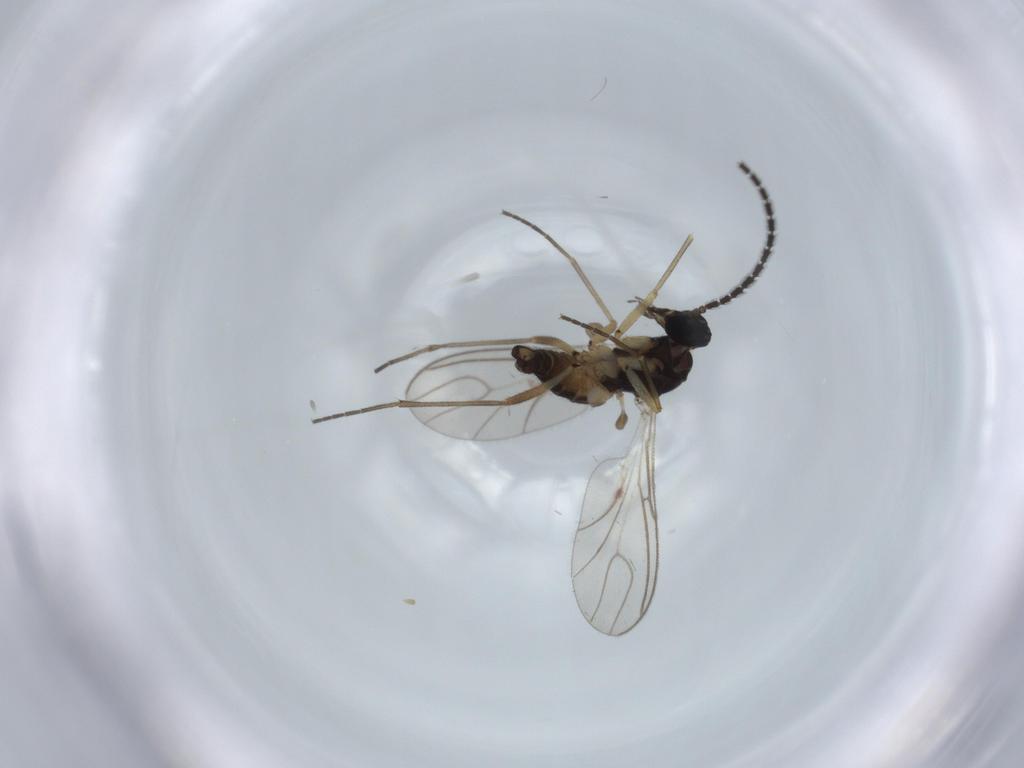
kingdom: Animalia
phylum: Arthropoda
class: Insecta
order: Diptera
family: Sciaridae
